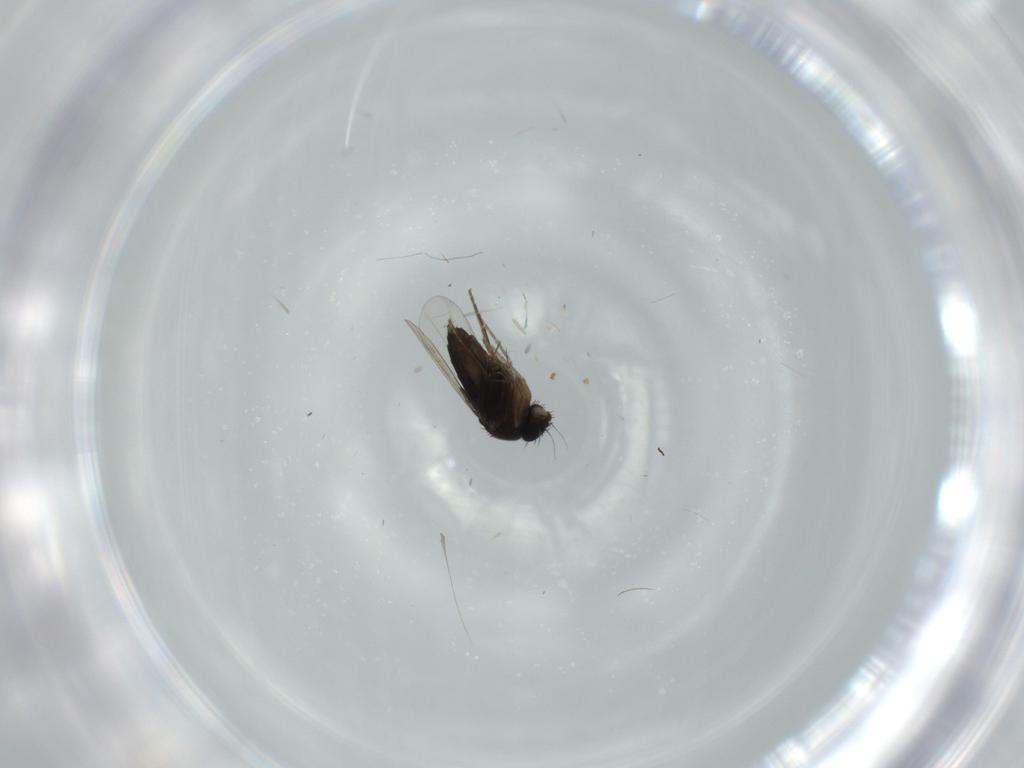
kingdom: Animalia
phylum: Arthropoda
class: Insecta
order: Diptera
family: Phoridae
